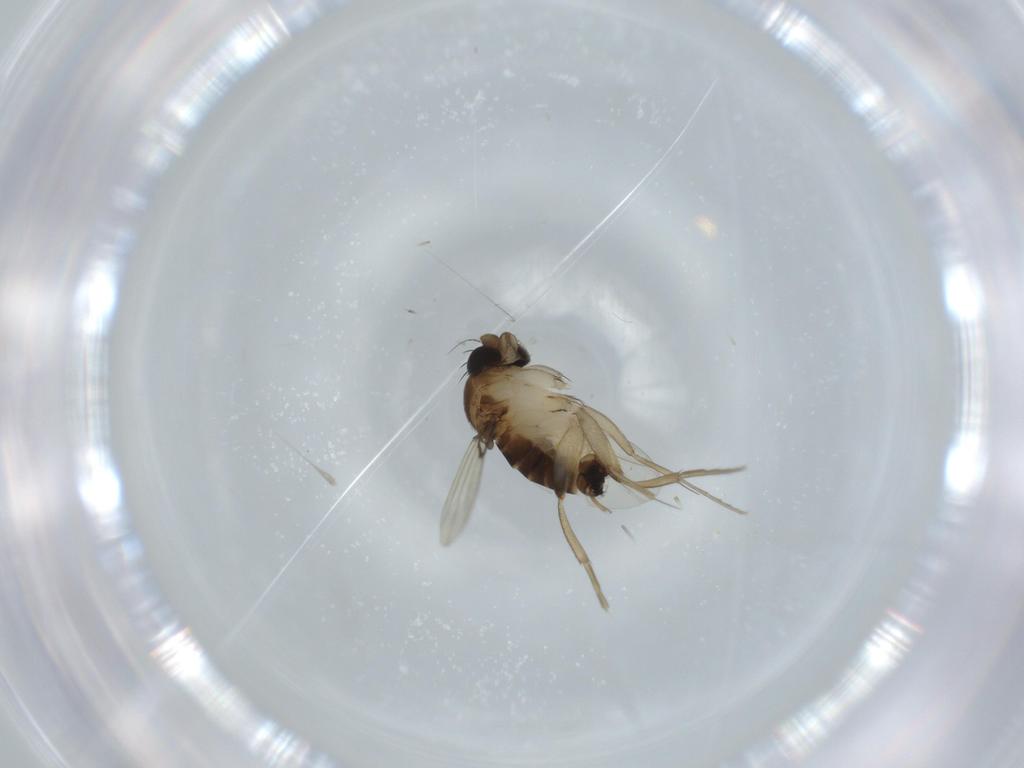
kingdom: Animalia
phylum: Arthropoda
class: Insecta
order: Diptera
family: Phoridae
